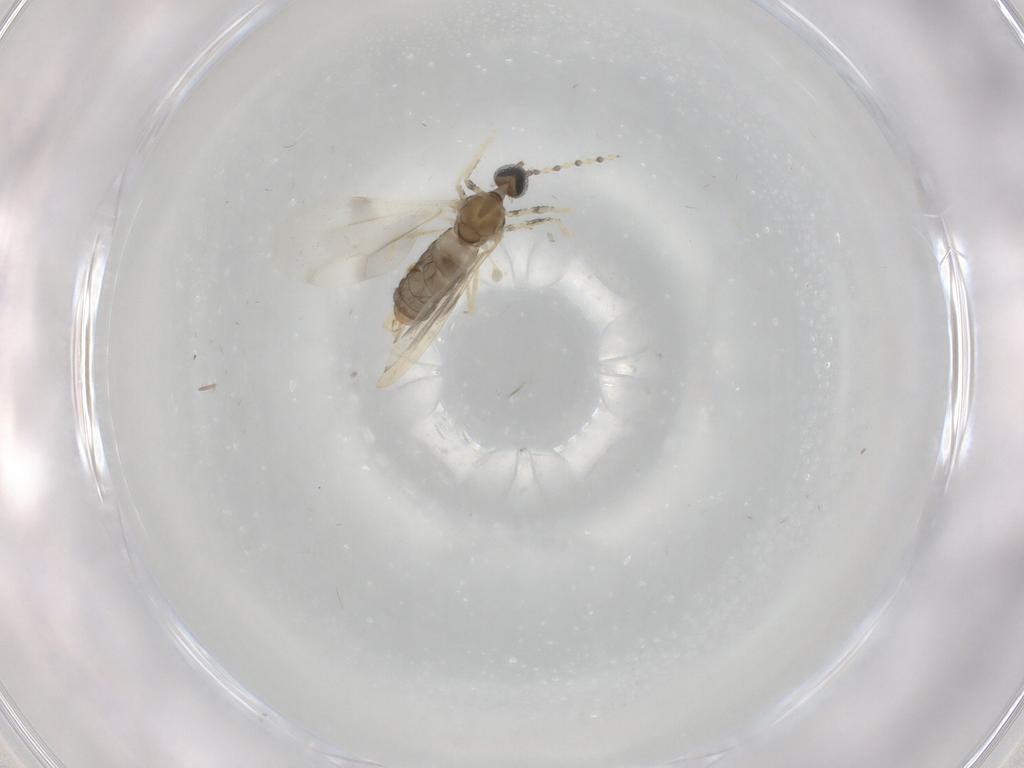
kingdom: Animalia
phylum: Arthropoda
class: Insecta
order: Diptera
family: Cecidomyiidae
